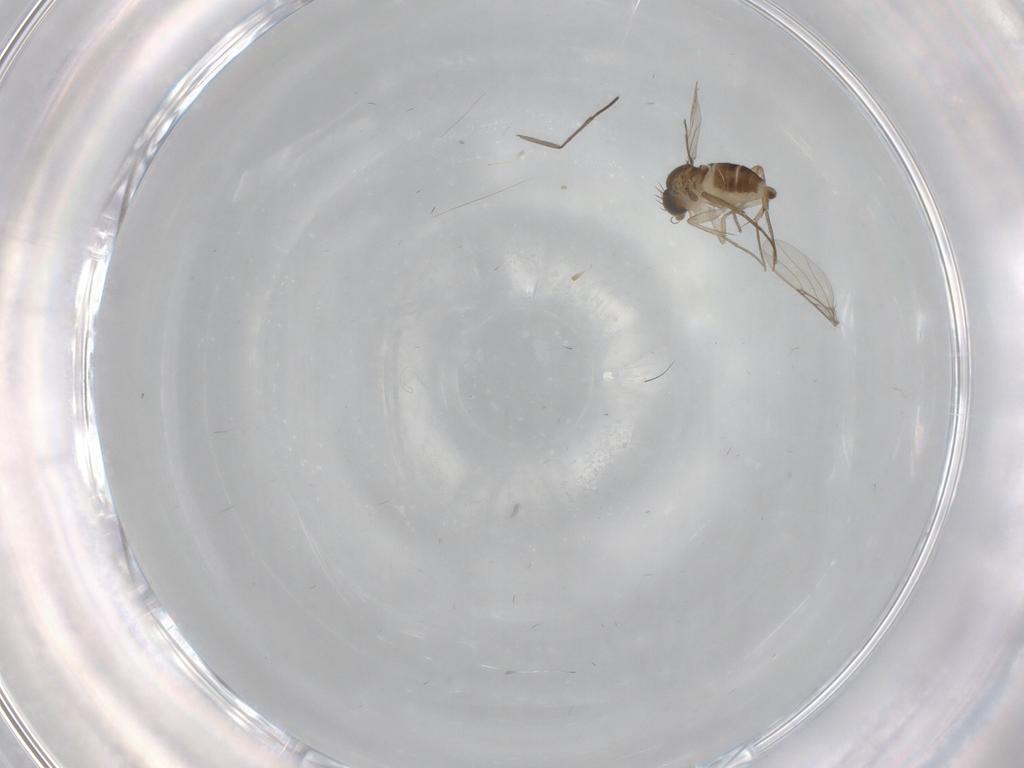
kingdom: Animalia
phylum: Arthropoda
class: Insecta
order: Diptera
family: Phoridae
